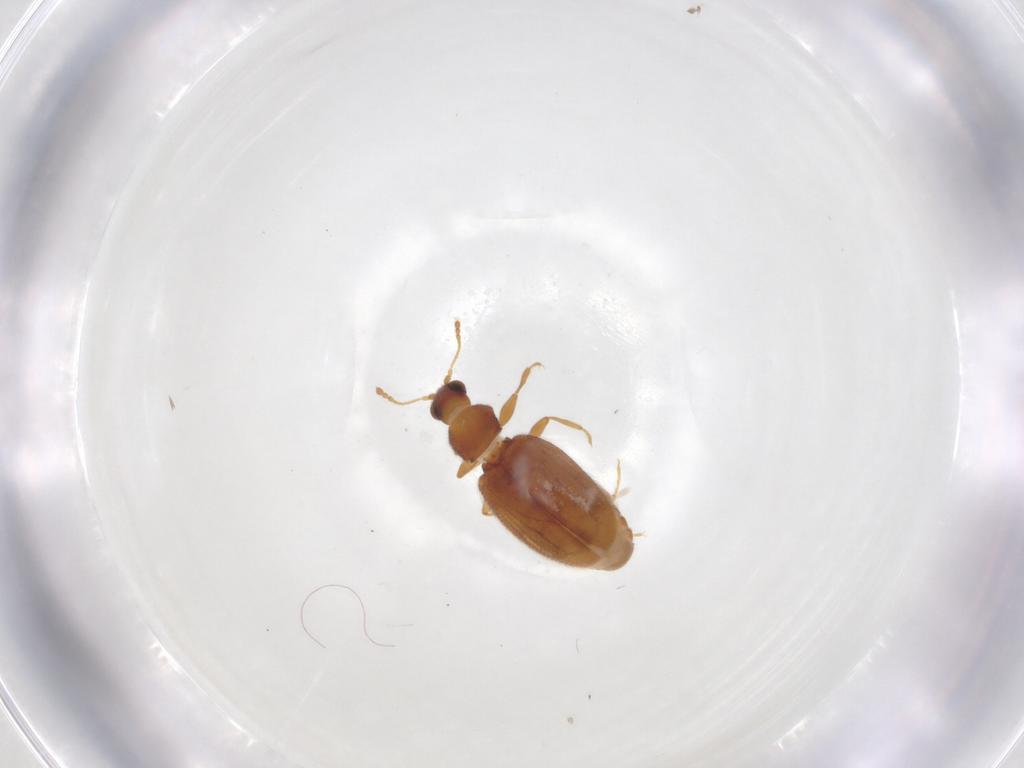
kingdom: Animalia
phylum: Arthropoda
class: Insecta
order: Coleoptera
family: Latridiidae
